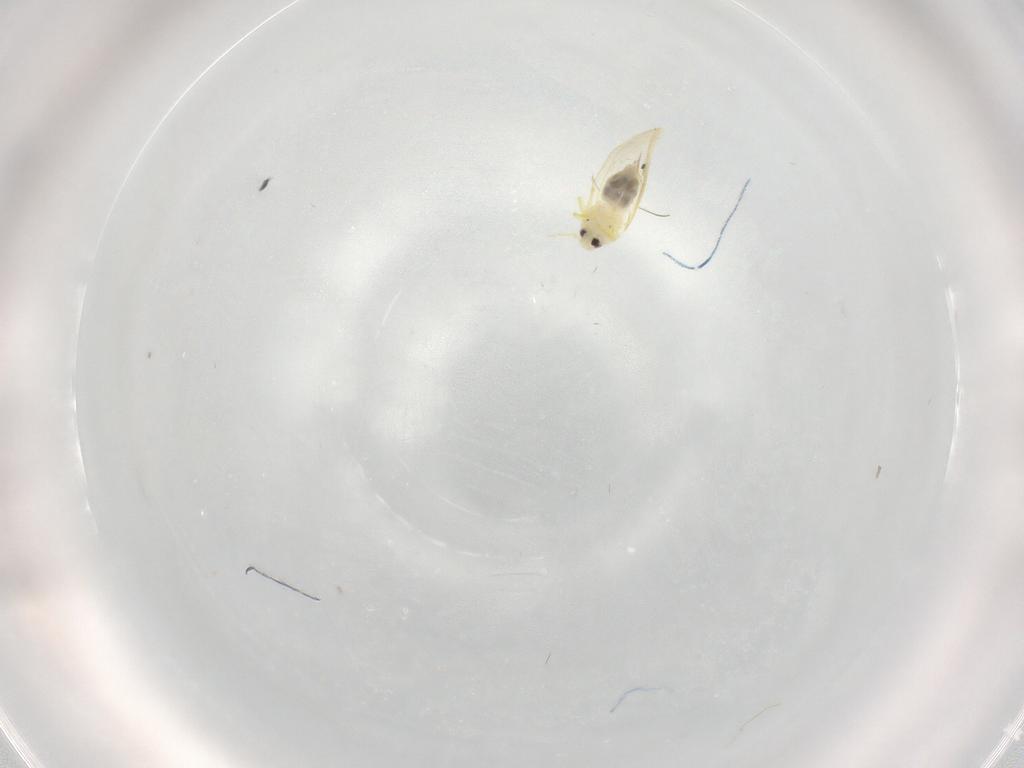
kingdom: Animalia
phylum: Arthropoda
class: Insecta
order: Hemiptera
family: Aleyrodidae
